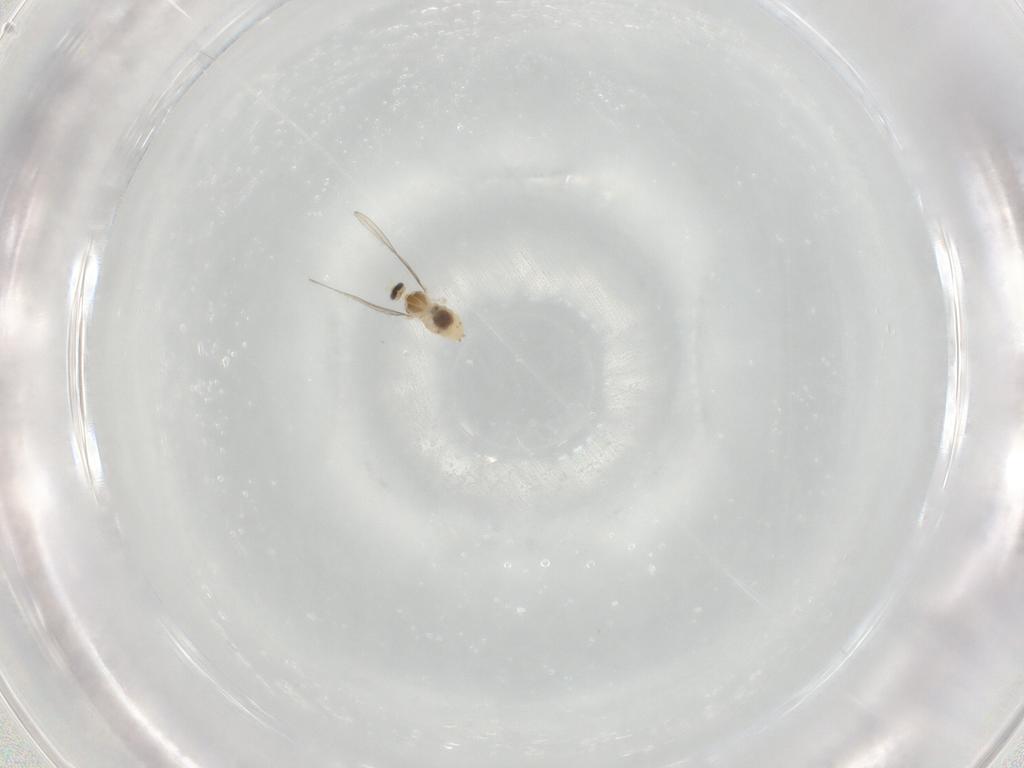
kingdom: Animalia
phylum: Arthropoda
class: Insecta
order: Diptera
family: Cecidomyiidae
